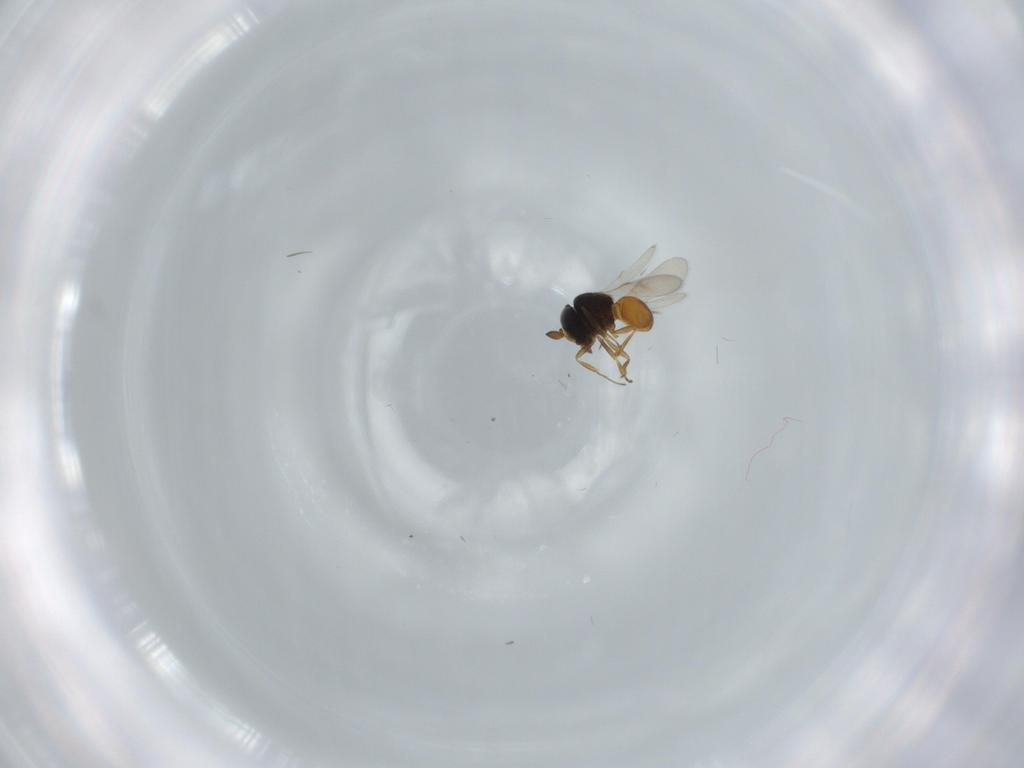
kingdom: Animalia
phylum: Arthropoda
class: Insecta
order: Hymenoptera
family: Scelionidae
